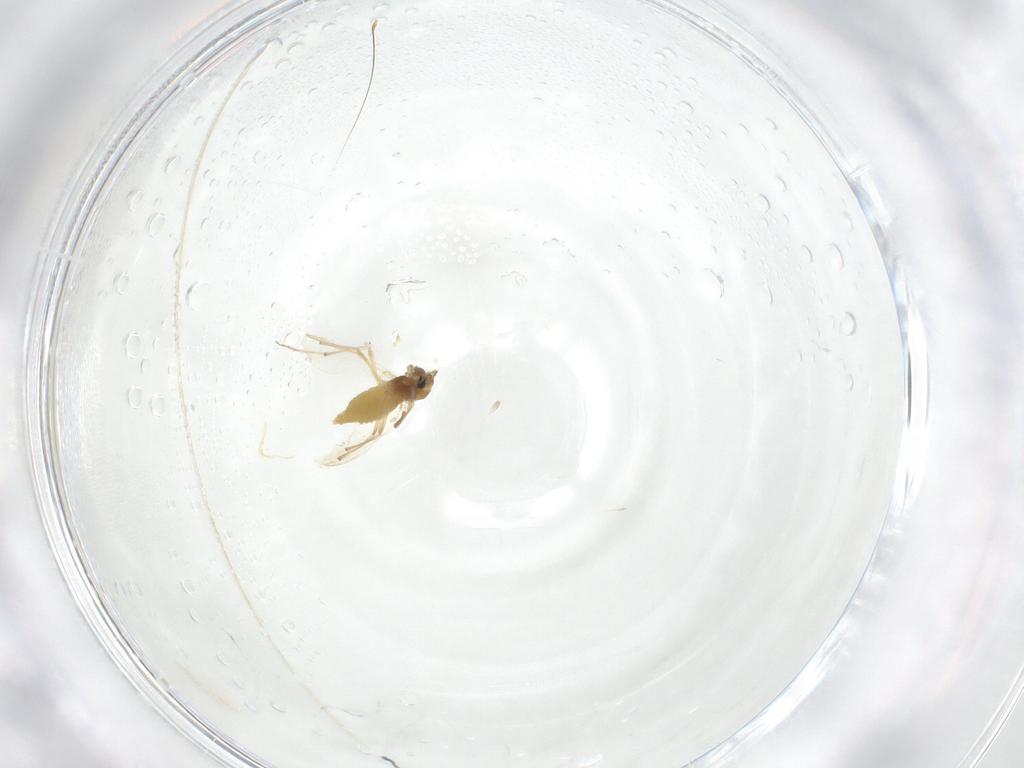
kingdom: Animalia
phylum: Arthropoda
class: Insecta
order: Diptera
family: Chironomidae
